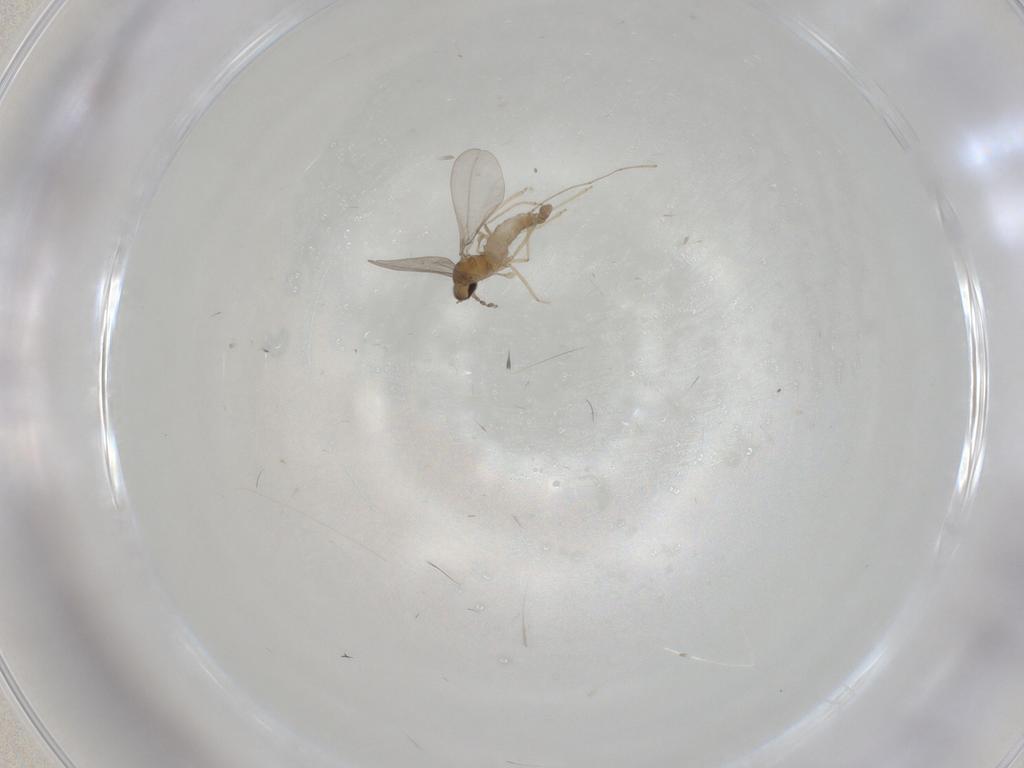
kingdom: Animalia
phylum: Arthropoda
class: Insecta
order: Diptera
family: Cecidomyiidae
